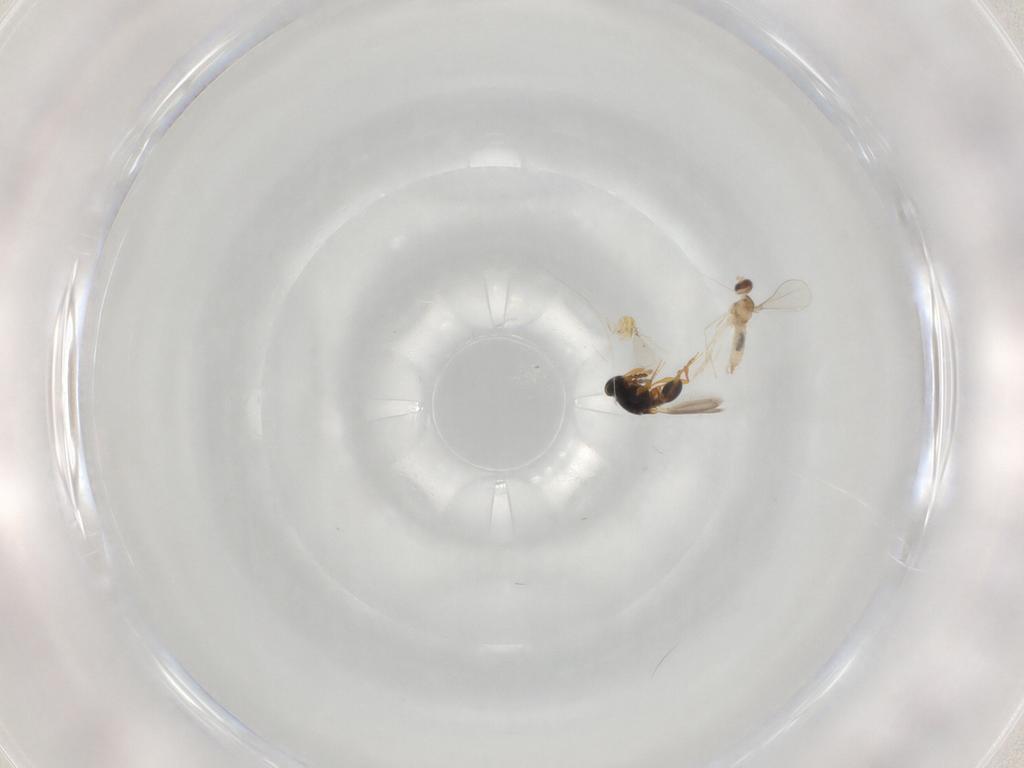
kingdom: Animalia
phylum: Arthropoda
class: Insecta
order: Diptera
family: Cecidomyiidae
